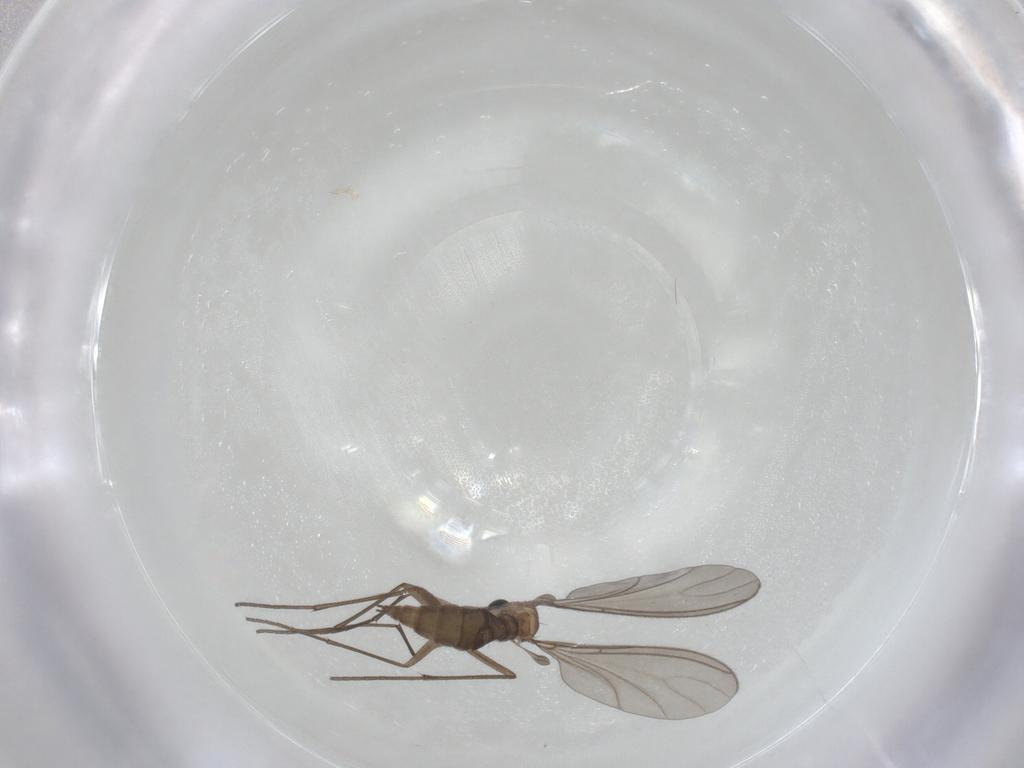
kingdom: Animalia
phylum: Arthropoda
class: Insecta
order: Diptera
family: Sciaridae
